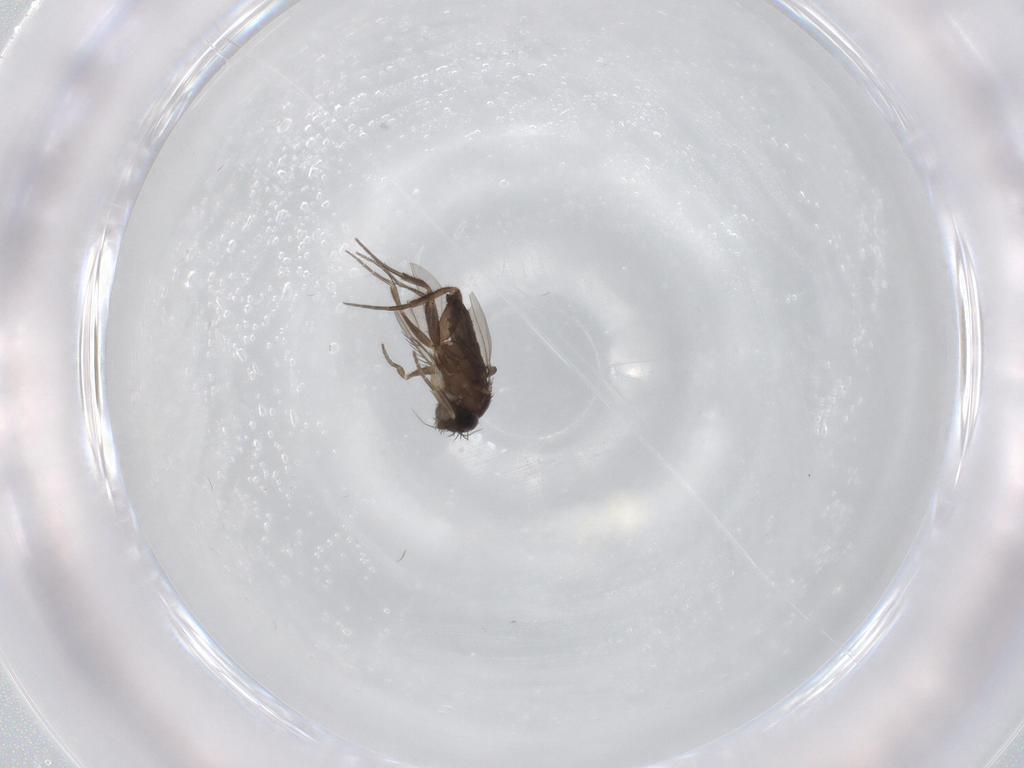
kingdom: Animalia
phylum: Arthropoda
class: Insecta
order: Diptera
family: Phoridae
